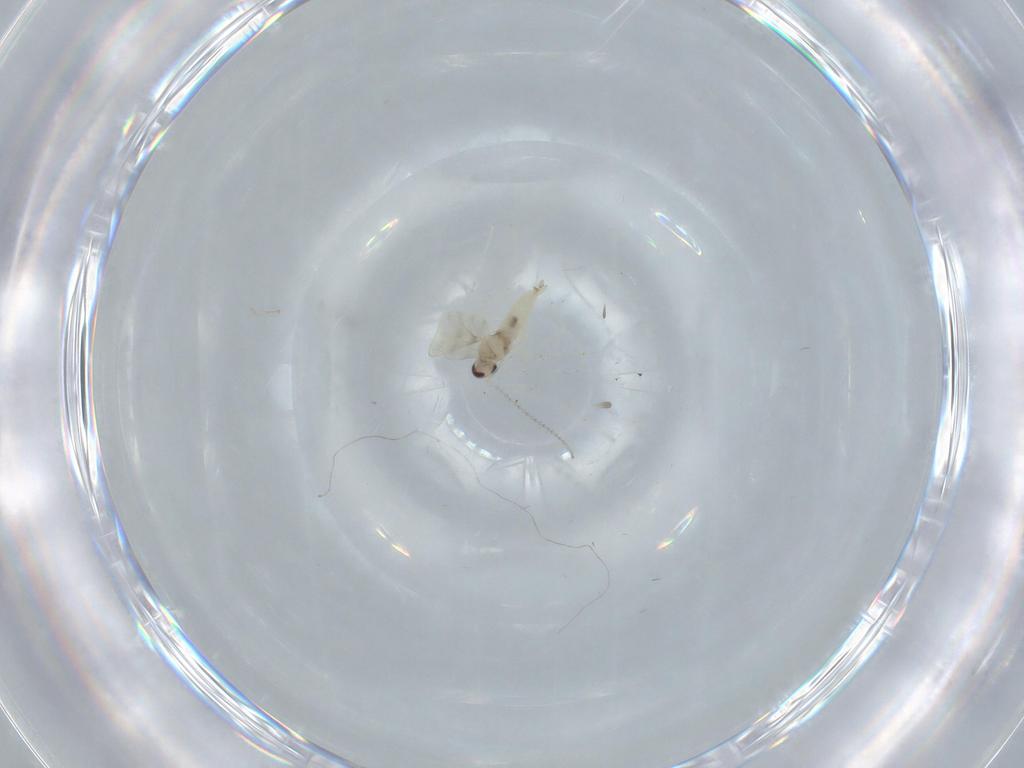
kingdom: Animalia
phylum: Arthropoda
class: Insecta
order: Diptera
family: Cecidomyiidae
